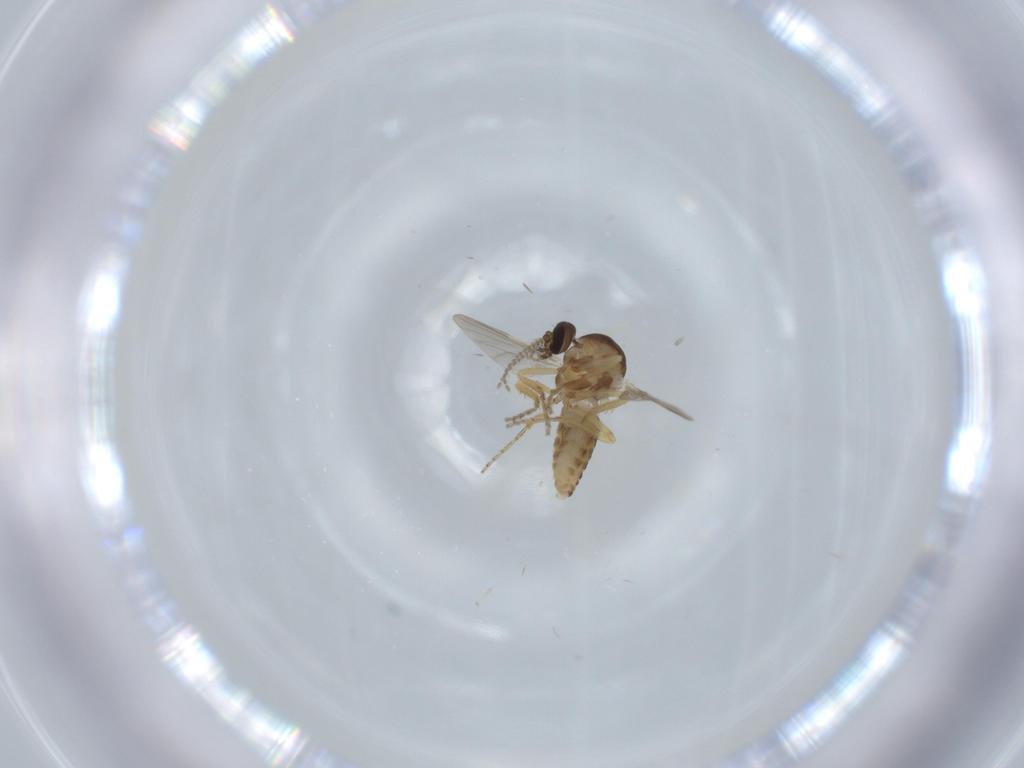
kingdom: Animalia
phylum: Arthropoda
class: Insecta
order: Diptera
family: Ceratopogonidae
